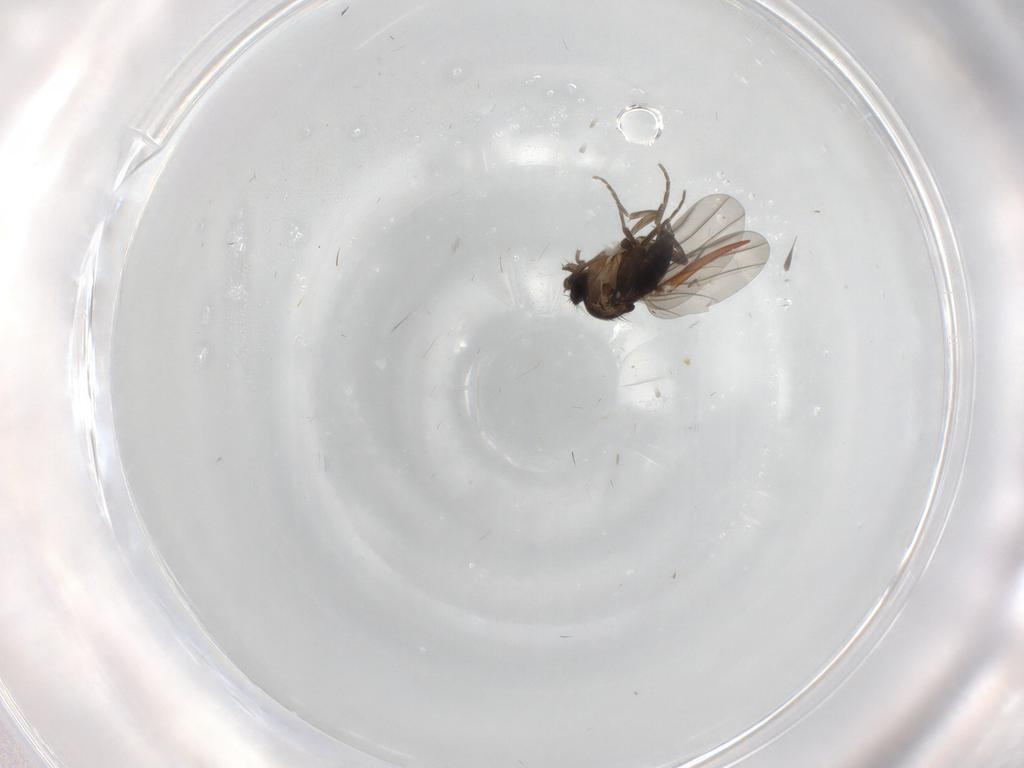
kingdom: Animalia
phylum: Arthropoda
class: Insecta
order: Diptera
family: Phoridae
